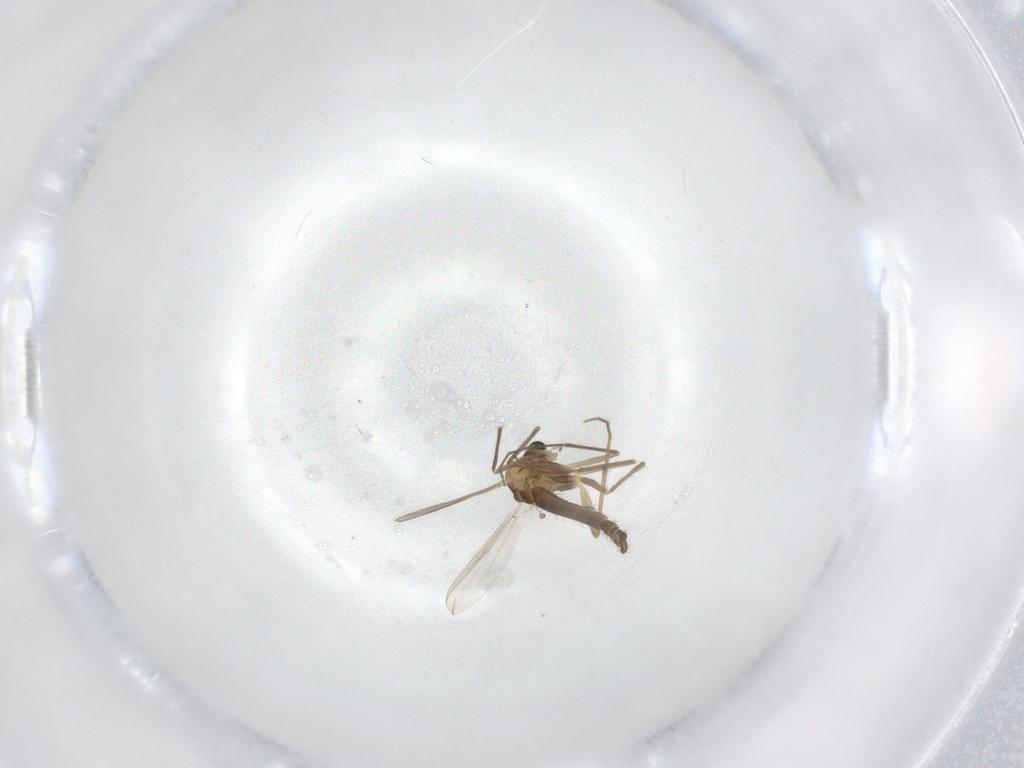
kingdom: Animalia
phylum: Arthropoda
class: Insecta
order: Diptera
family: Chironomidae
